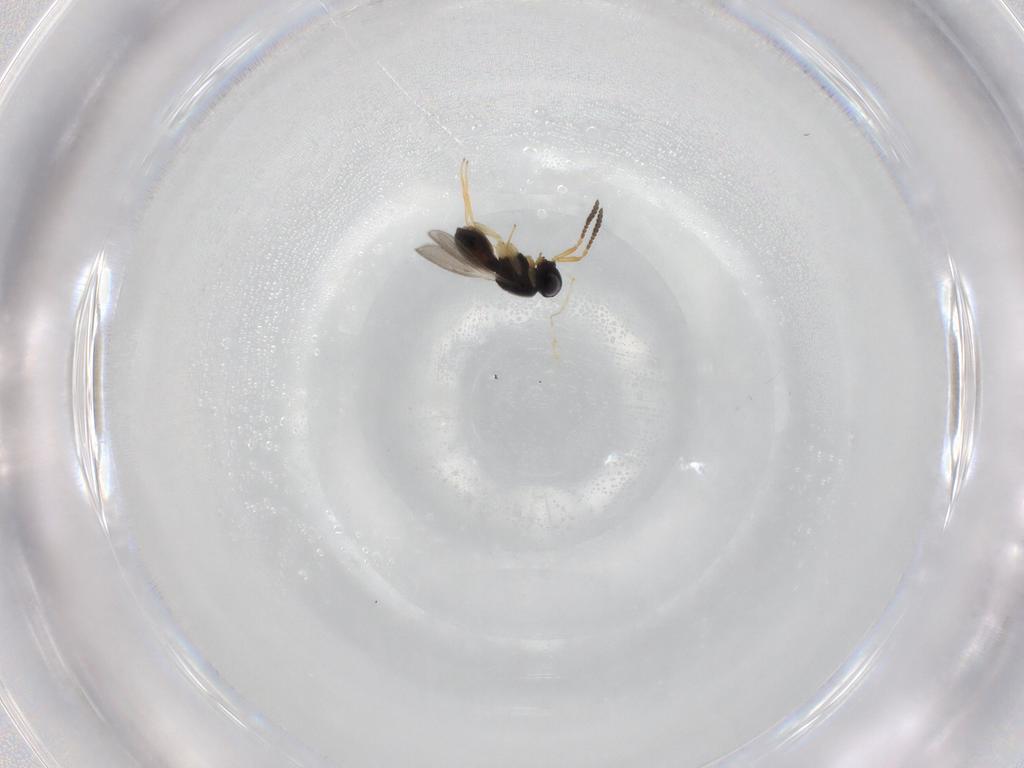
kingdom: Animalia
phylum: Arthropoda
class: Insecta
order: Hymenoptera
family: Scelionidae
